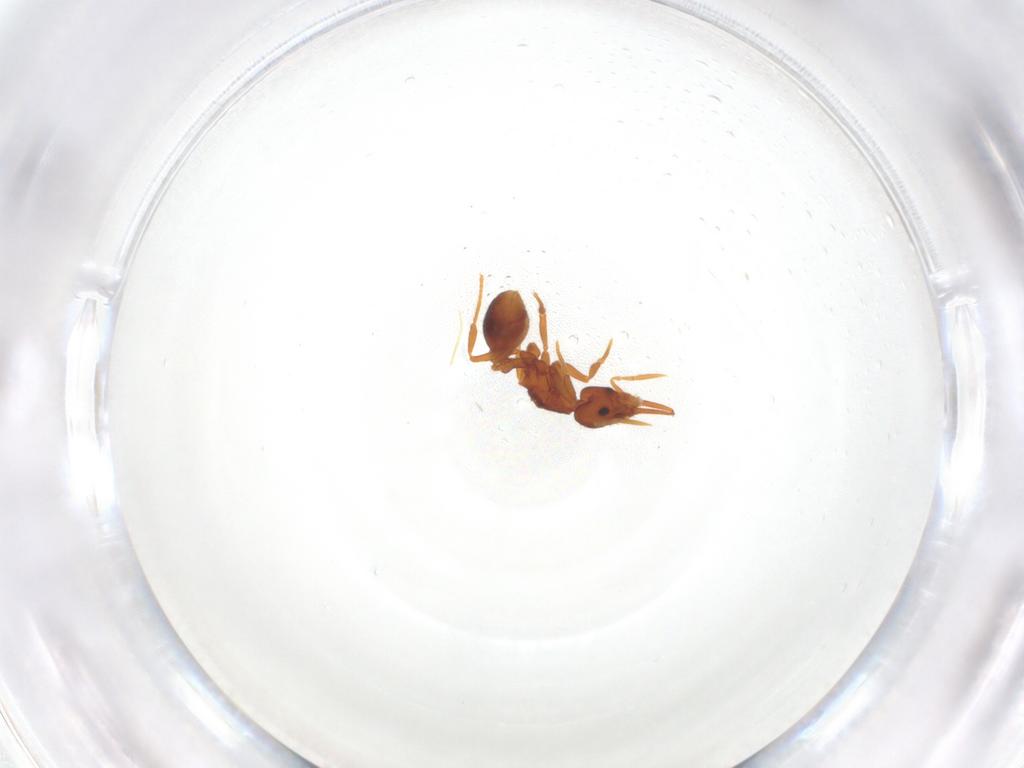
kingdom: Animalia
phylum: Arthropoda
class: Insecta
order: Hymenoptera
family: Formicidae
